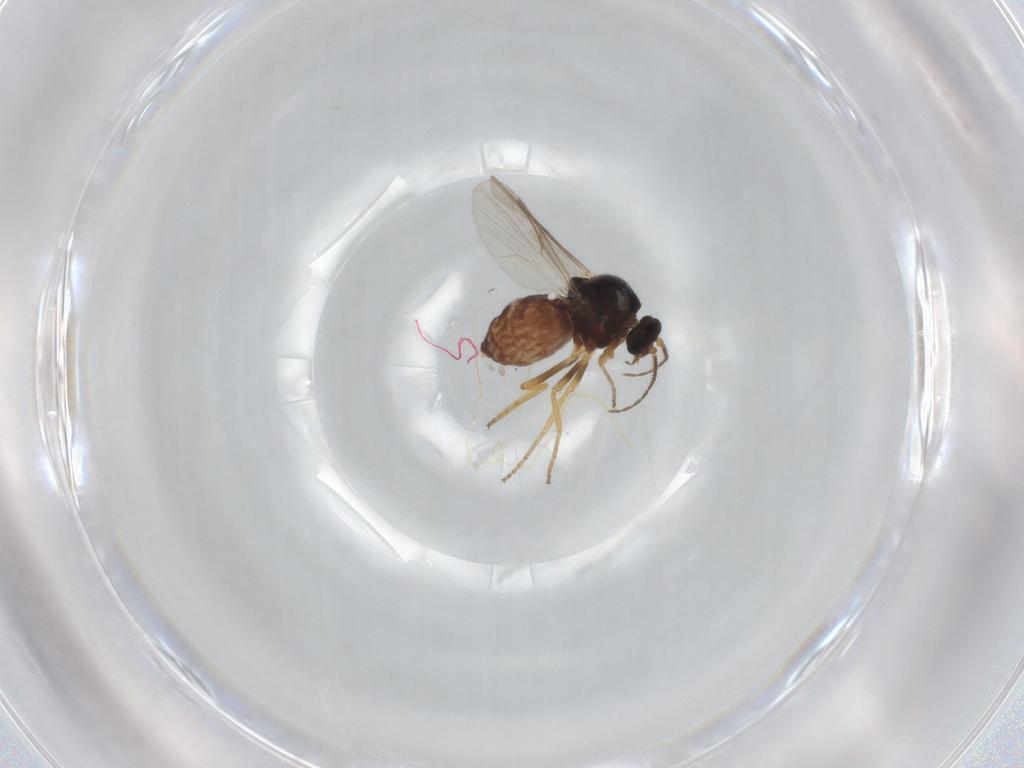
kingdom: Animalia
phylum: Arthropoda
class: Insecta
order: Diptera
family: Ceratopogonidae
